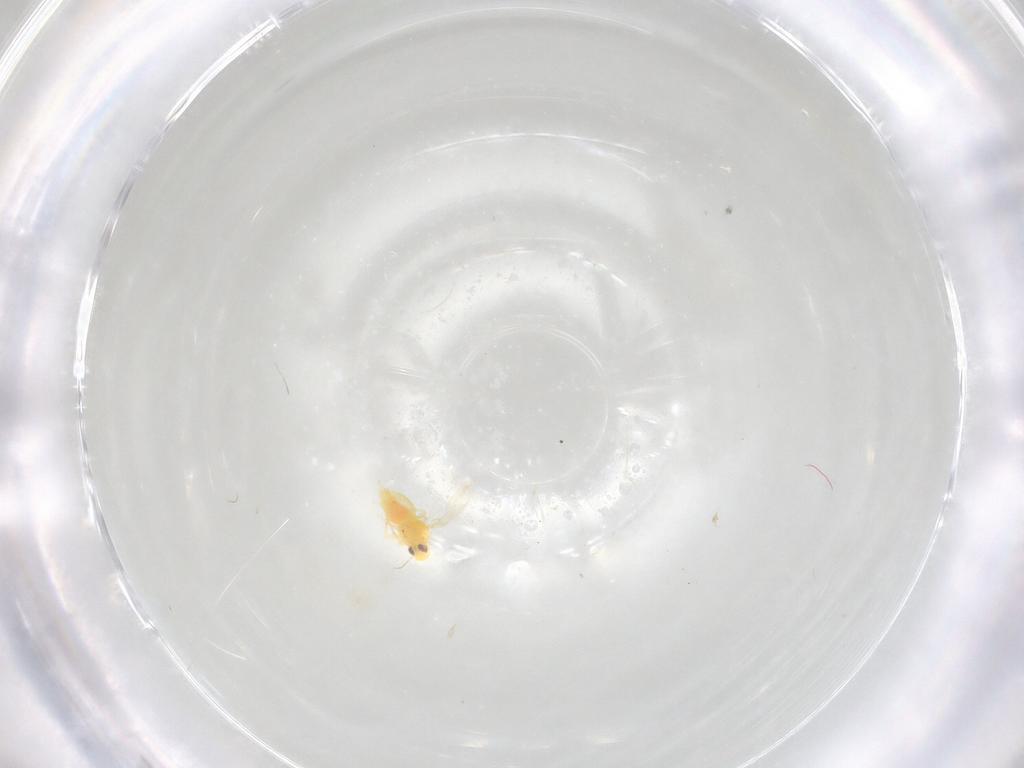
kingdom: Animalia
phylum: Arthropoda
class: Insecta
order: Hemiptera
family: Aleyrodidae
